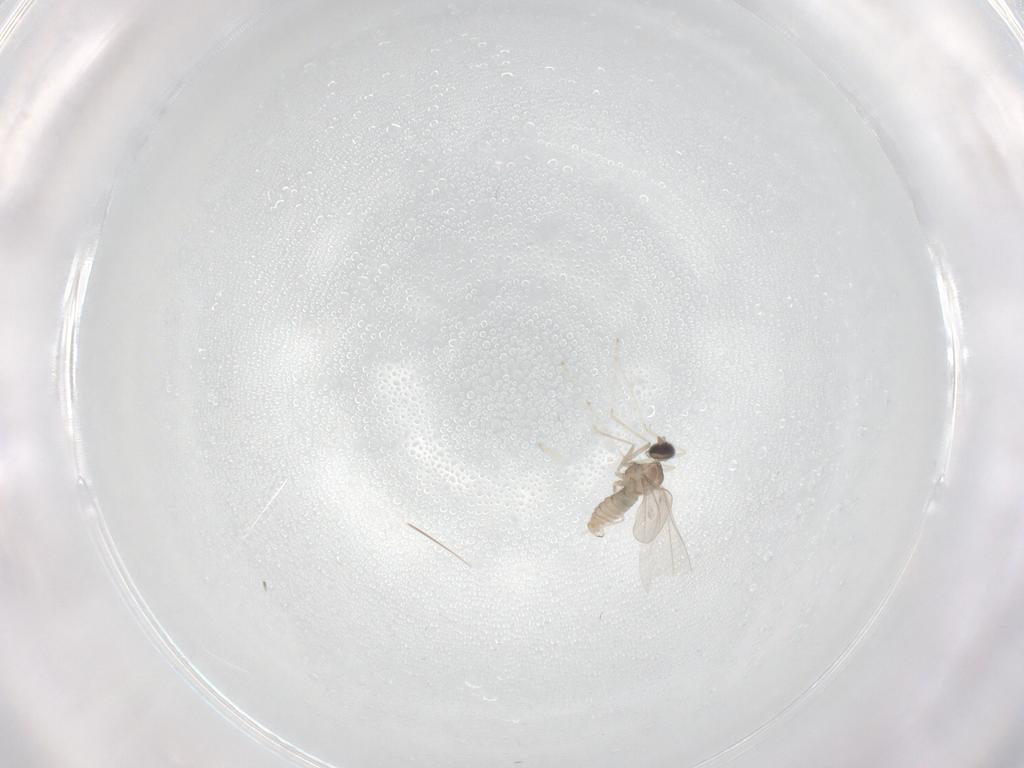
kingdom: Animalia
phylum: Arthropoda
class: Insecta
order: Diptera
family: Cecidomyiidae
